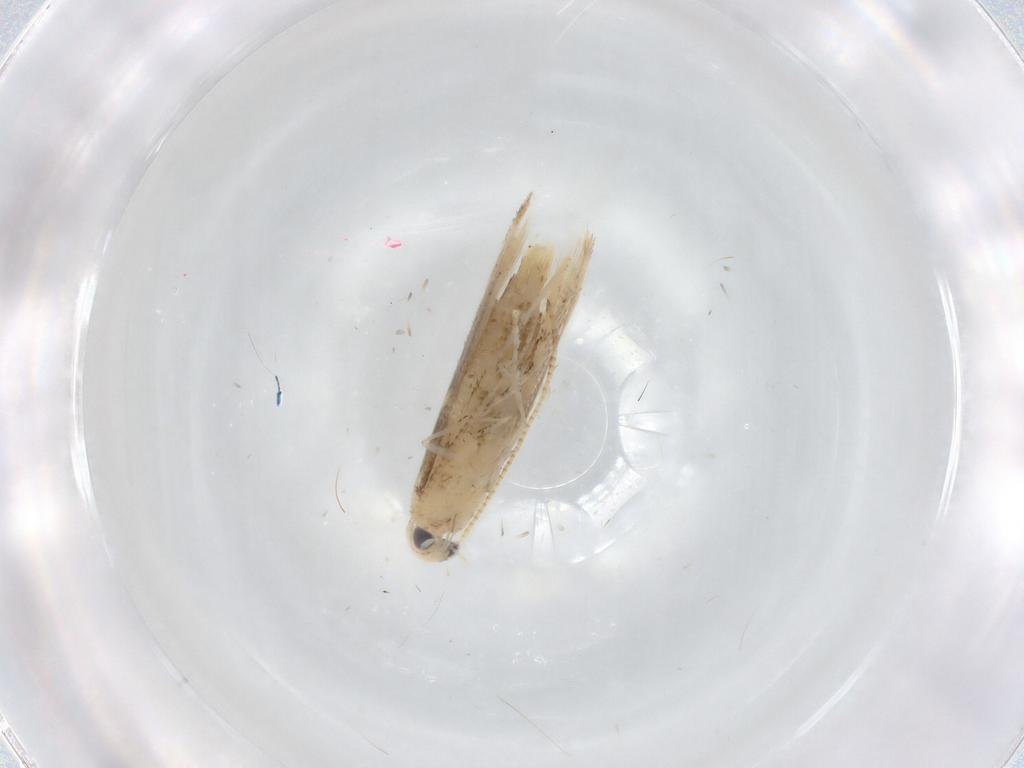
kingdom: Animalia
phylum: Arthropoda
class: Insecta
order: Lepidoptera
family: Gracillariidae
